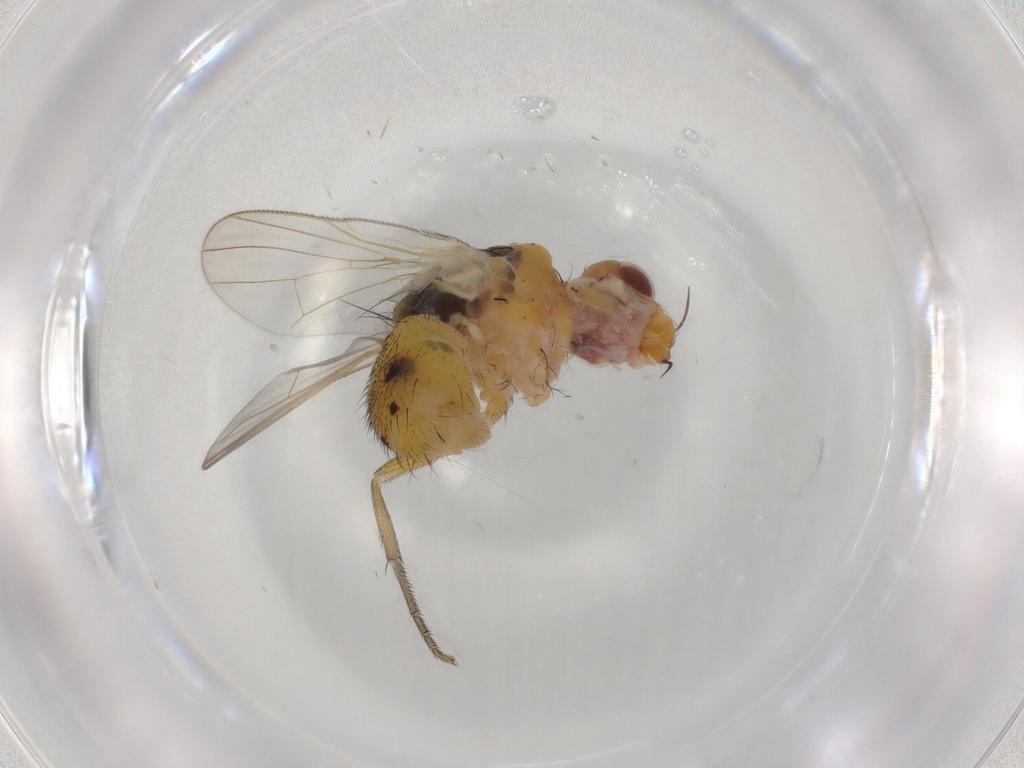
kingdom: Animalia
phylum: Arthropoda
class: Insecta
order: Diptera
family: Muscidae
